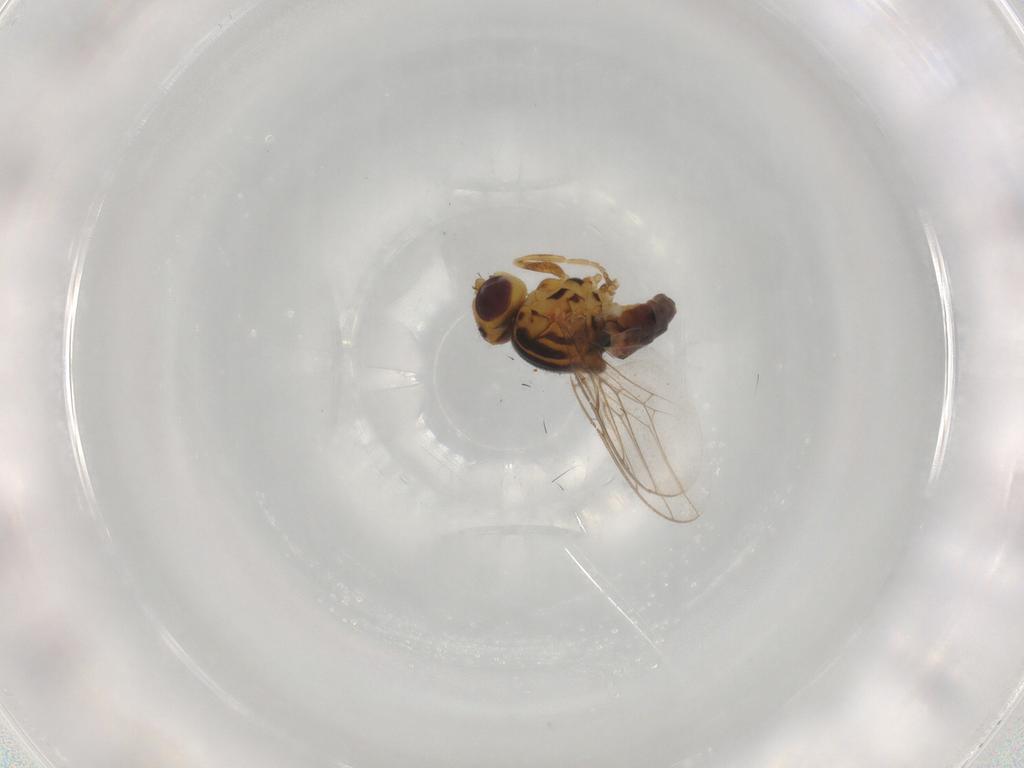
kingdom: Animalia
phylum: Arthropoda
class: Insecta
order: Diptera
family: Chloropidae
